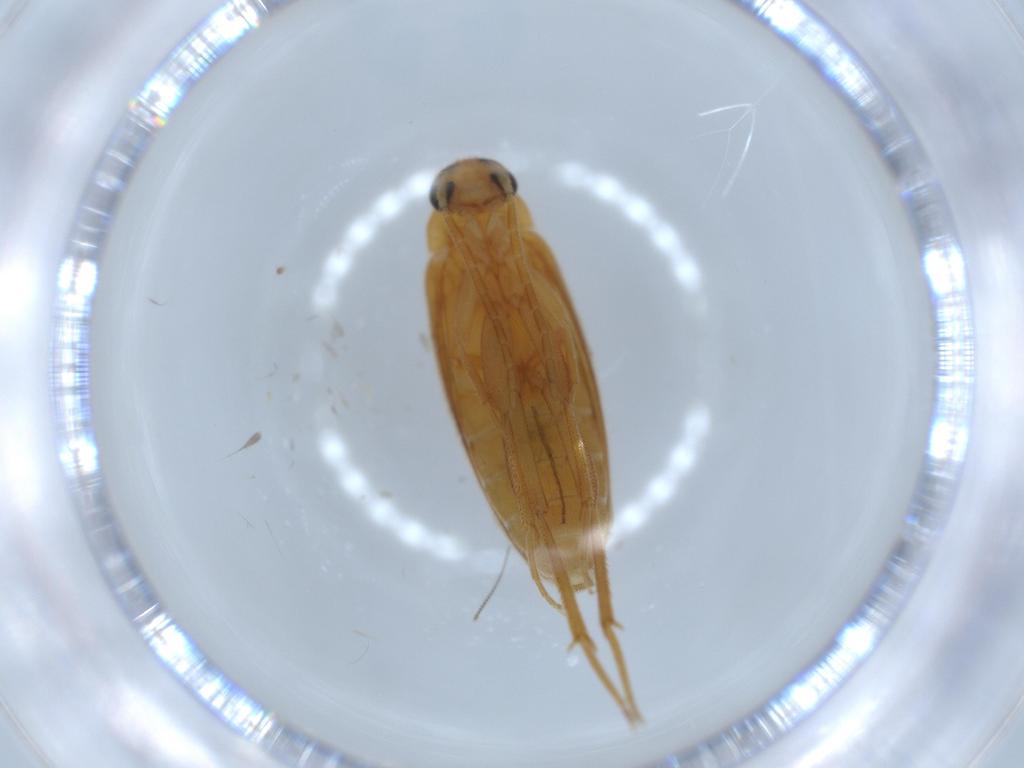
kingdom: Animalia
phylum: Arthropoda
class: Insecta
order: Coleoptera
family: Scraptiidae
